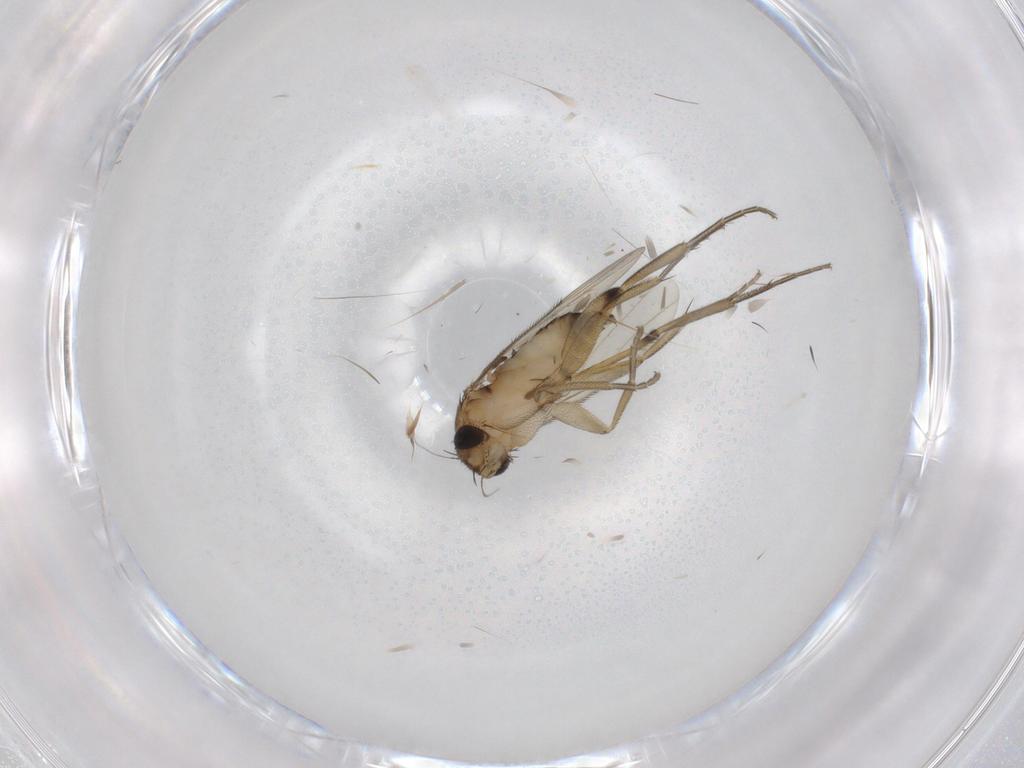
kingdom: Animalia
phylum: Arthropoda
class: Insecta
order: Diptera
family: Phoridae
